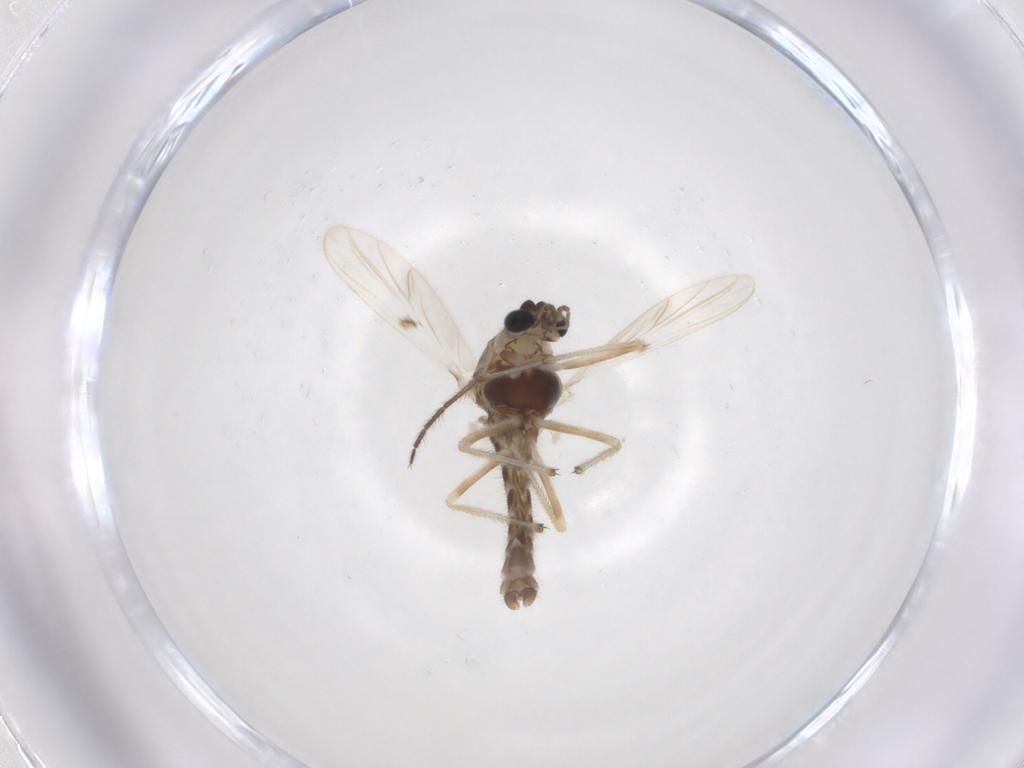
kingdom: Animalia
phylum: Arthropoda
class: Insecta
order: Diptera
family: Chironomidae
